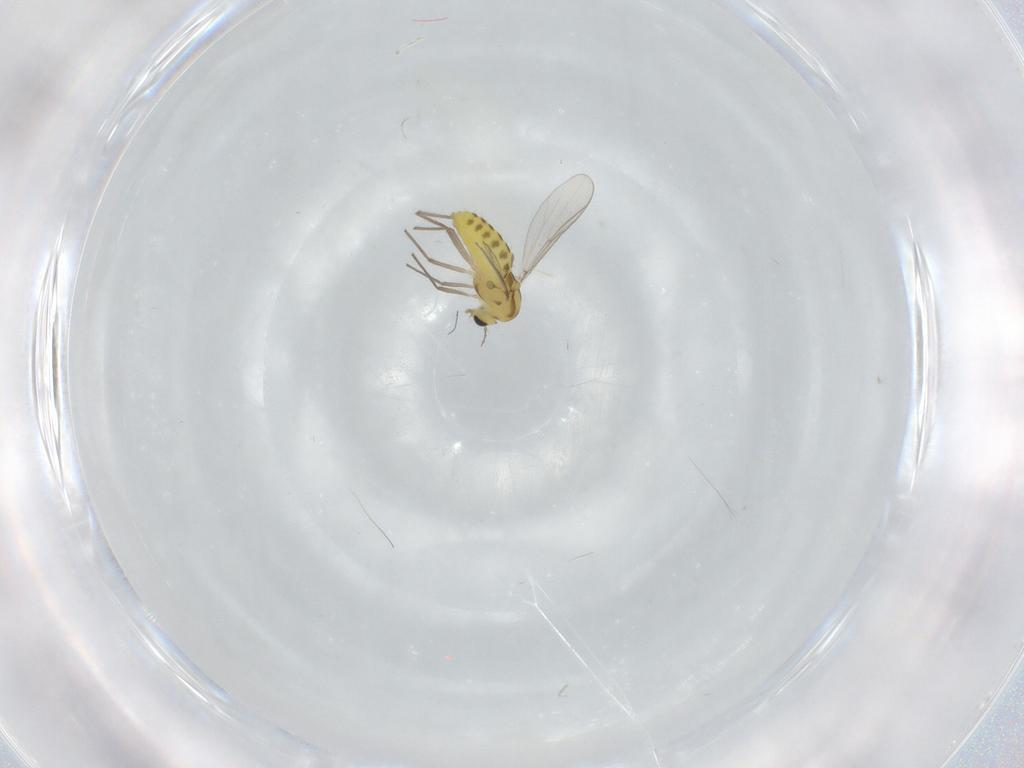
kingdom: Animalia
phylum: Arthropoda
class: Insecta
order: Diptera
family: Chironomidae
